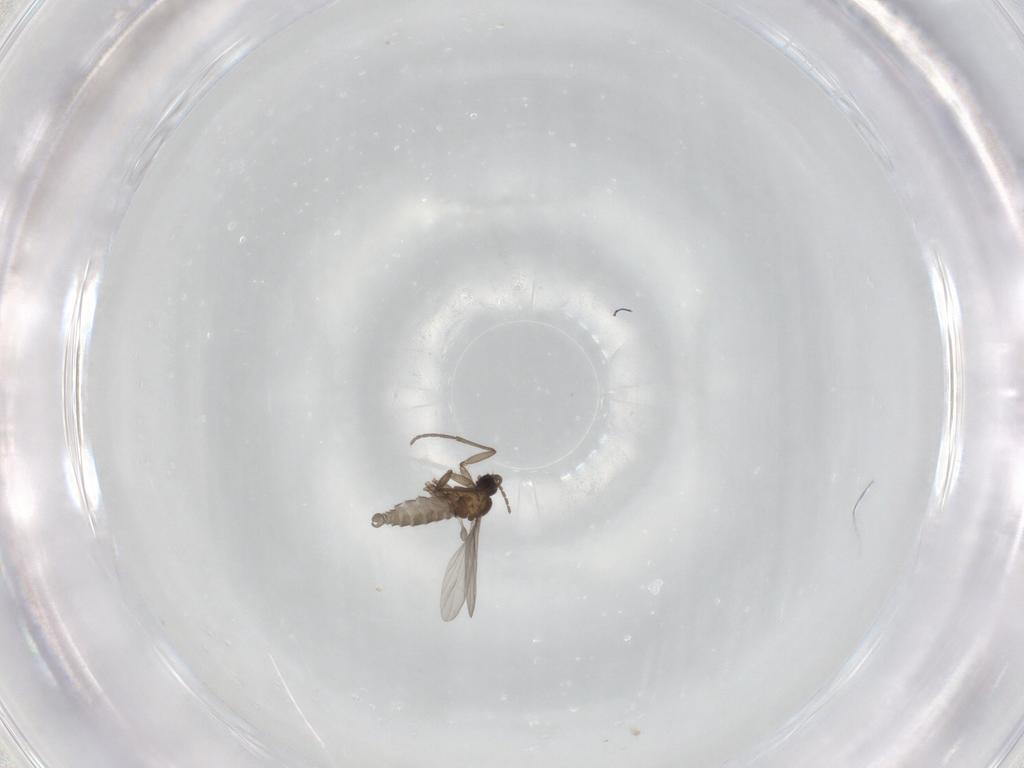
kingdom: Animalia
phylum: Arthropoda
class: Insecta
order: Diptera
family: Sciaridae
